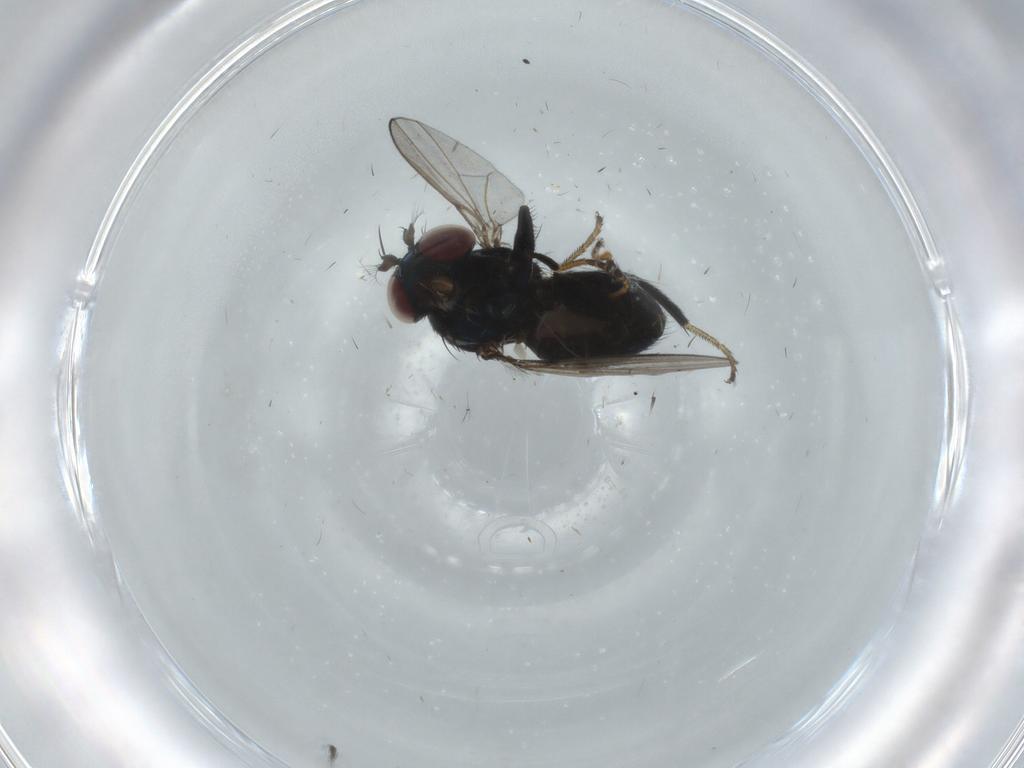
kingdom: Animalia
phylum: Arthropoda
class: Insecta
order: Diptera
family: Muscidae
